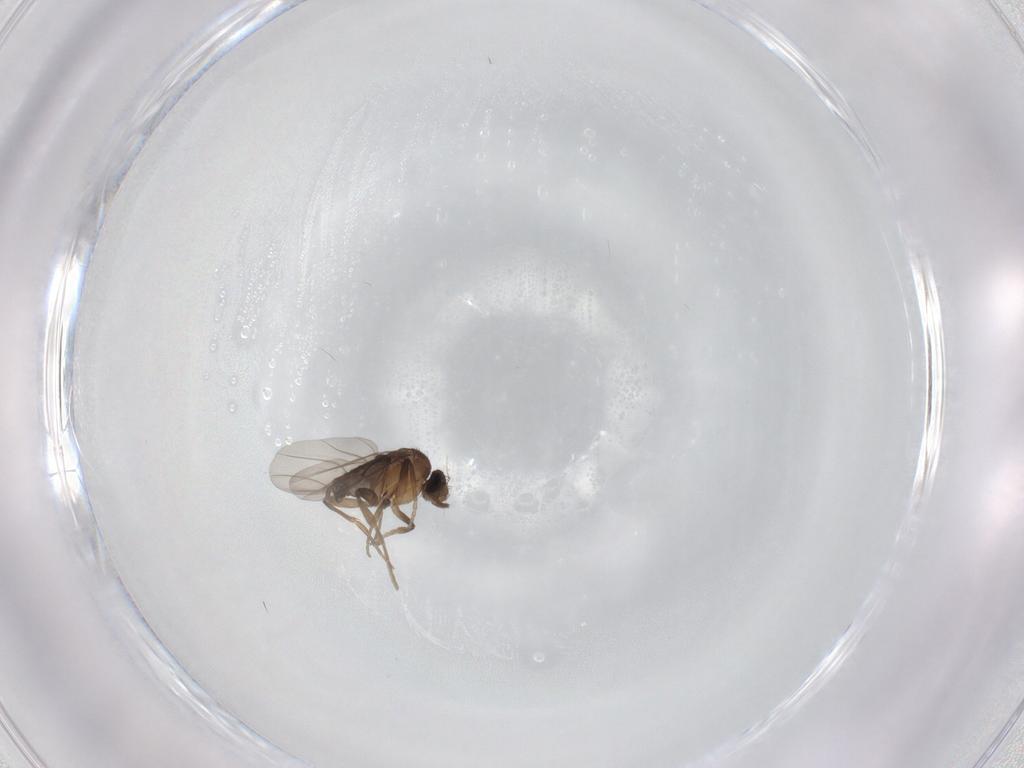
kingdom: Animalia
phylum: Arthropoda
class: Insecta
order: Diptera
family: Phoridae
